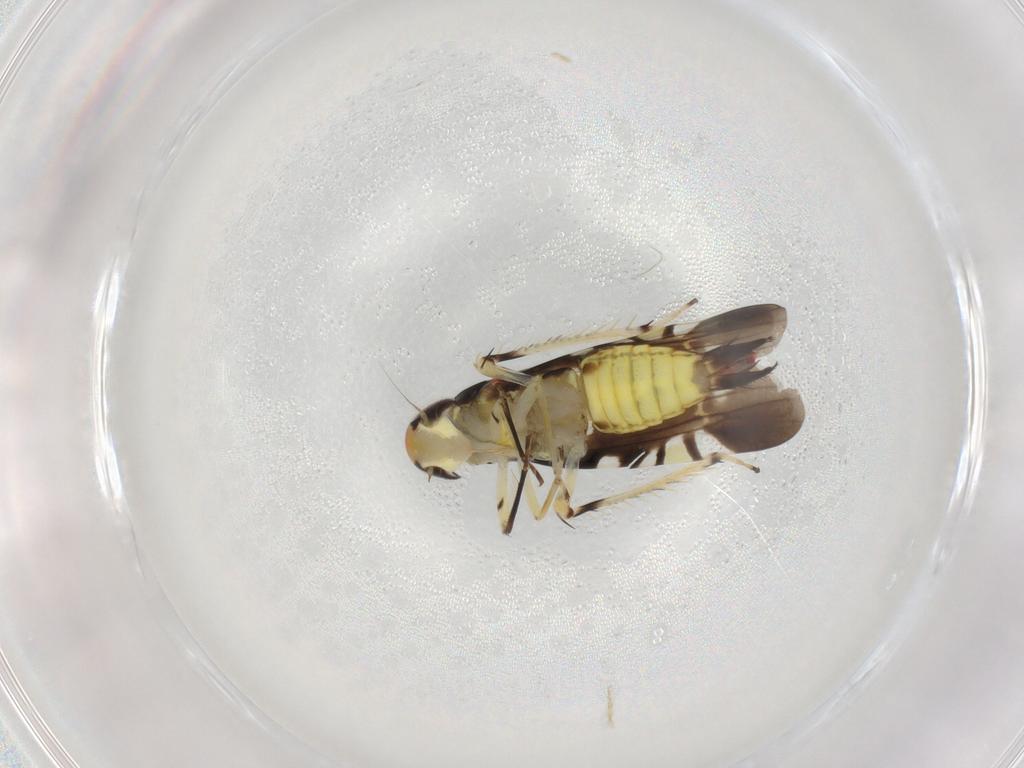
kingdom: Animalia
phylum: Arthropoda
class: Insecta
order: Hemiptera
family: Cicadellidae
